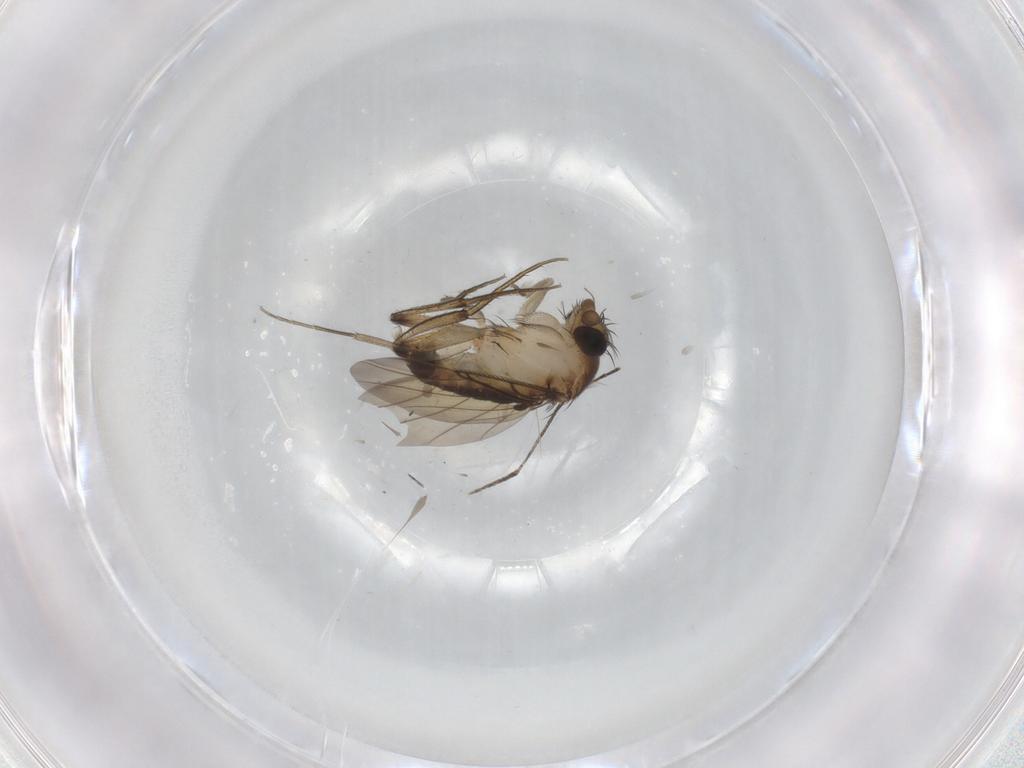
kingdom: Animalia
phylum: Arthropoda
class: Insecta
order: Diptera
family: Phoridae
